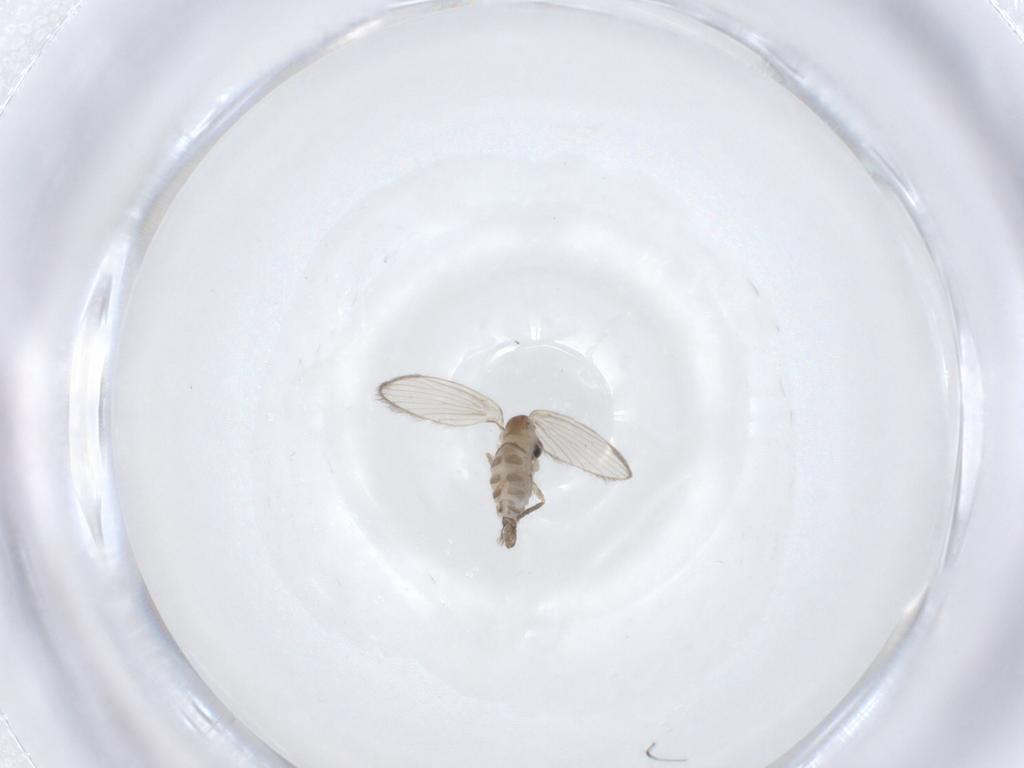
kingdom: Animalia
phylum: Arthropoda
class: Insecta
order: Diptera
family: Psychodidae
